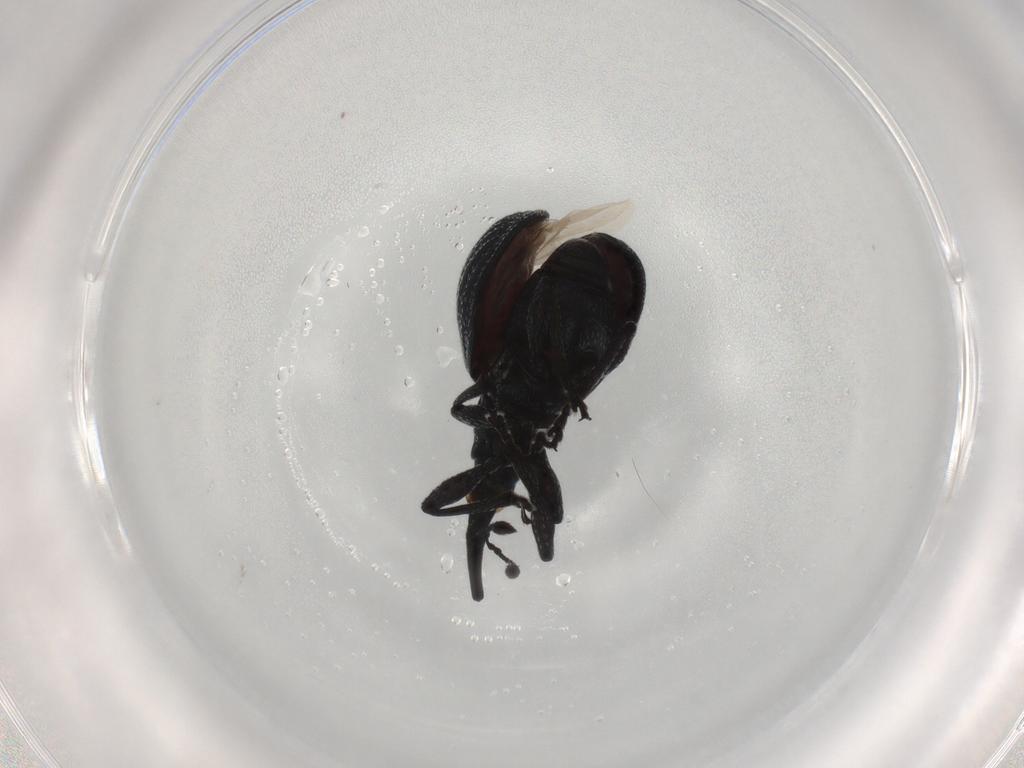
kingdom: Animalia
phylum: Arthropoda
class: Insecta
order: Coleoptera
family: Brentidae
